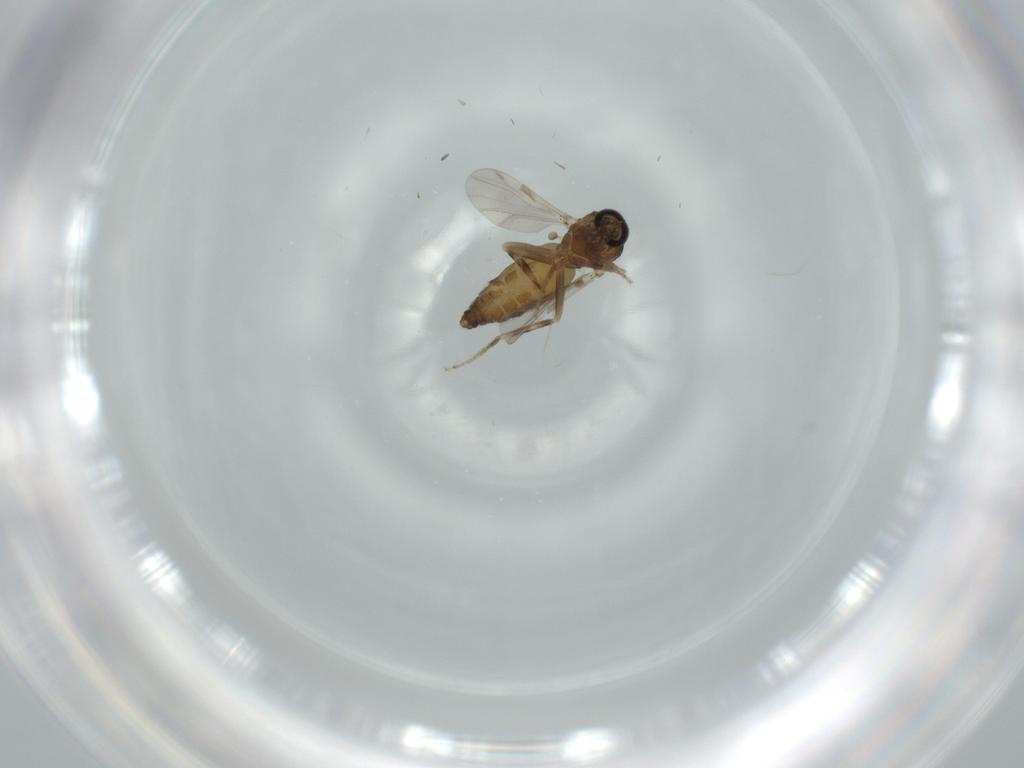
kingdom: Animalia
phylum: Arthropoda
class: Insecta
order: Diptera
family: Ceratopogonidae
